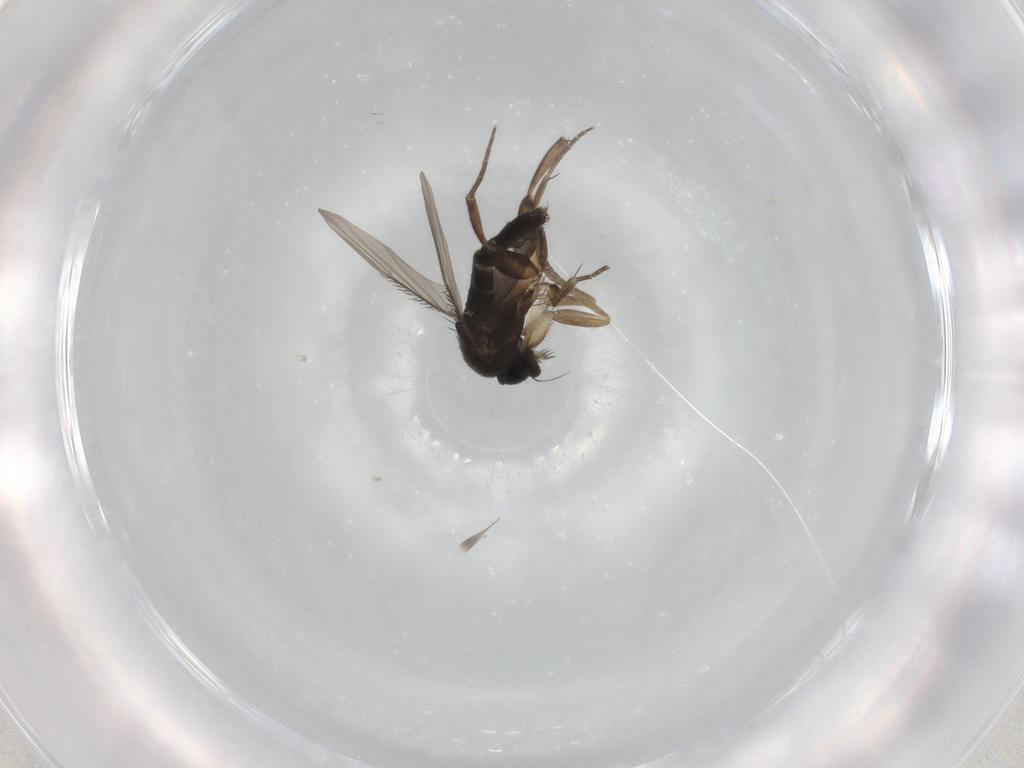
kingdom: Animalia
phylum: Arthropoda
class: Insecta
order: Diptera
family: Phoridae
